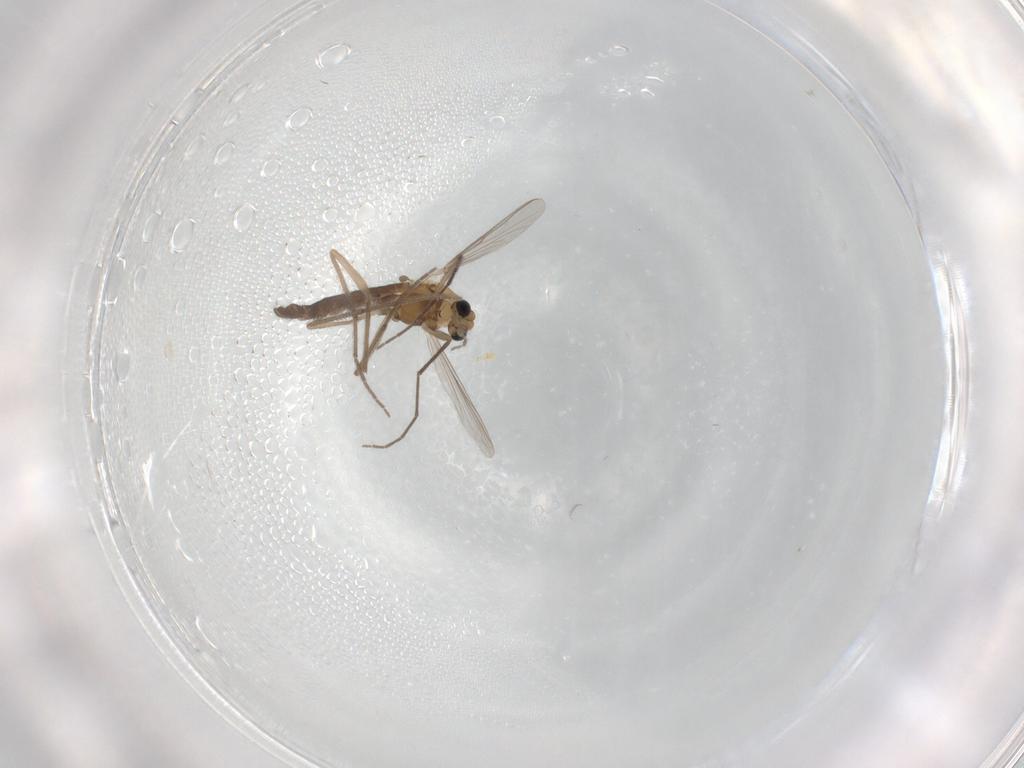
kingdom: Animalia
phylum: Arthropoda
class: Insecta
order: Diptera
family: Chironomidae
